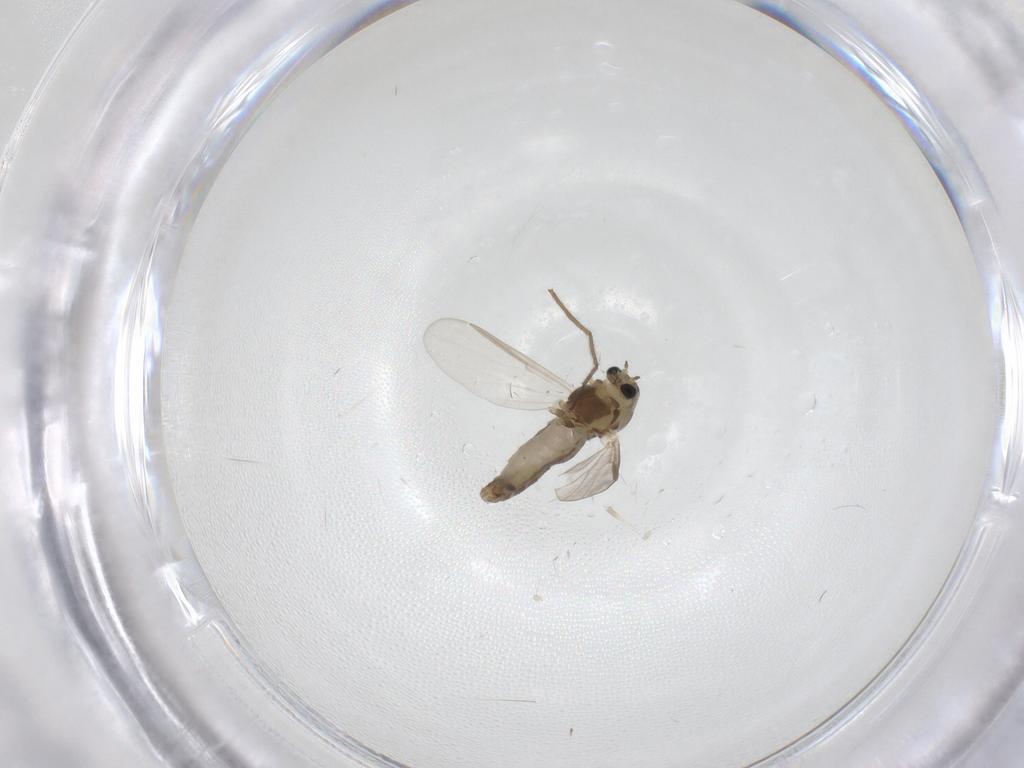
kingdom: Animalia
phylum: Arthropoda
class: Insecta
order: Diptera
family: Chironomidae
